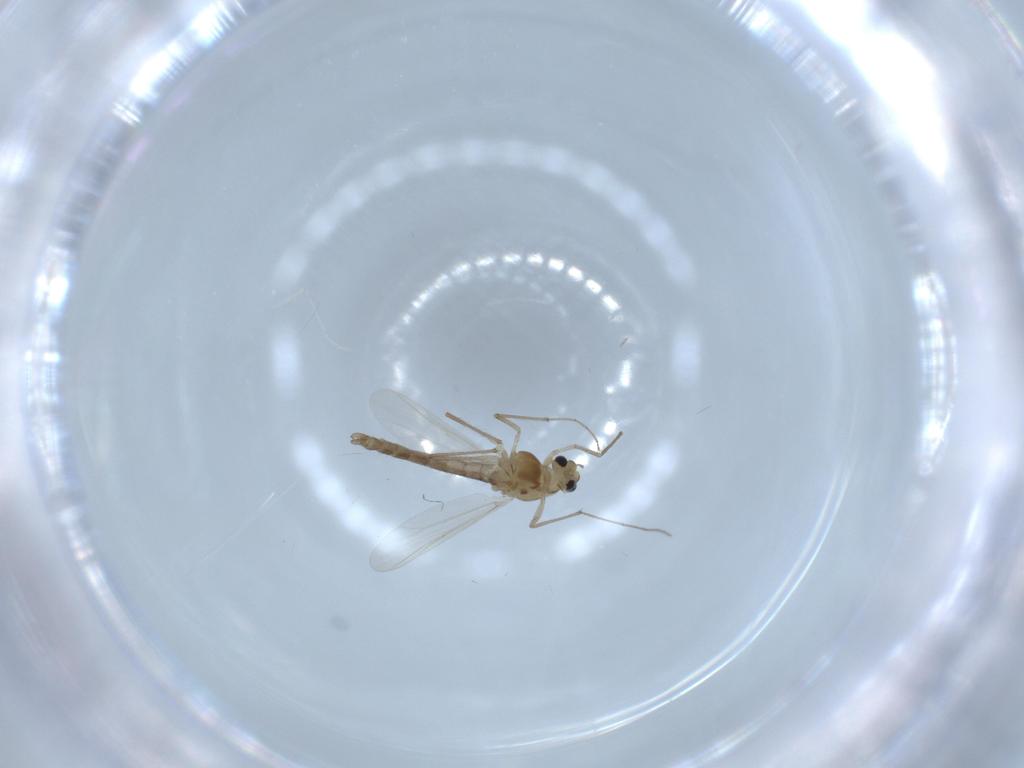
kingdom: Animalia
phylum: Arthropoda
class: Insecta
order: Diptera
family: Chironomidae
